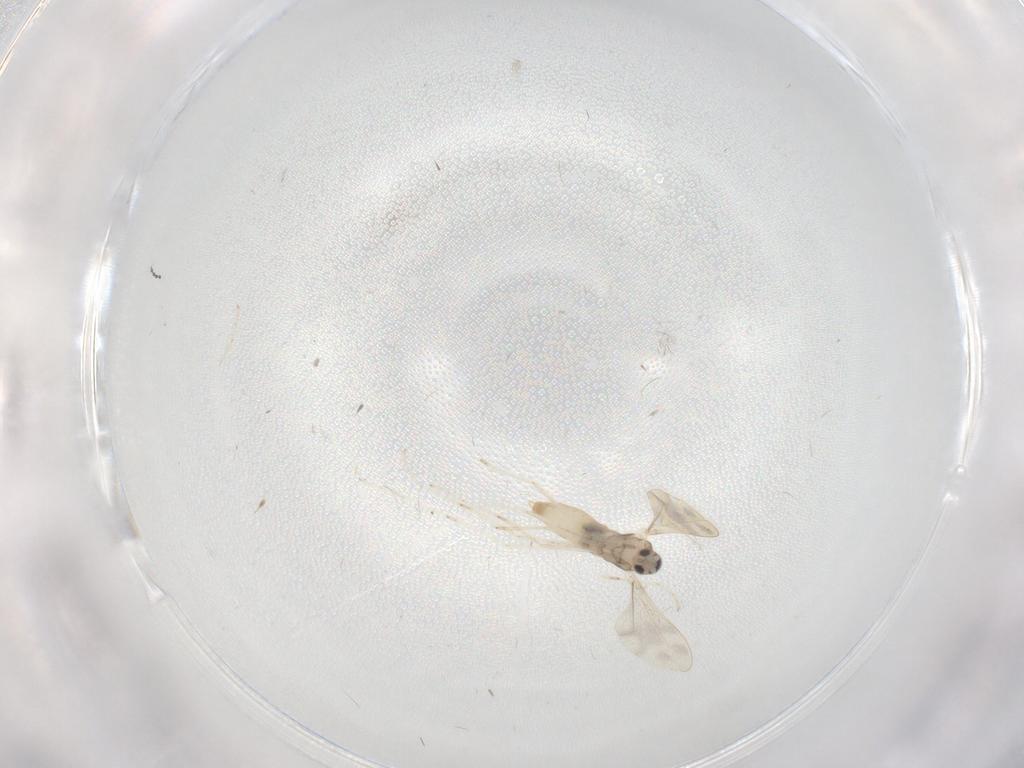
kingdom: Animalia
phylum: Arthropoda
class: Insecta
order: Diptera
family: Cecidomyiidae
